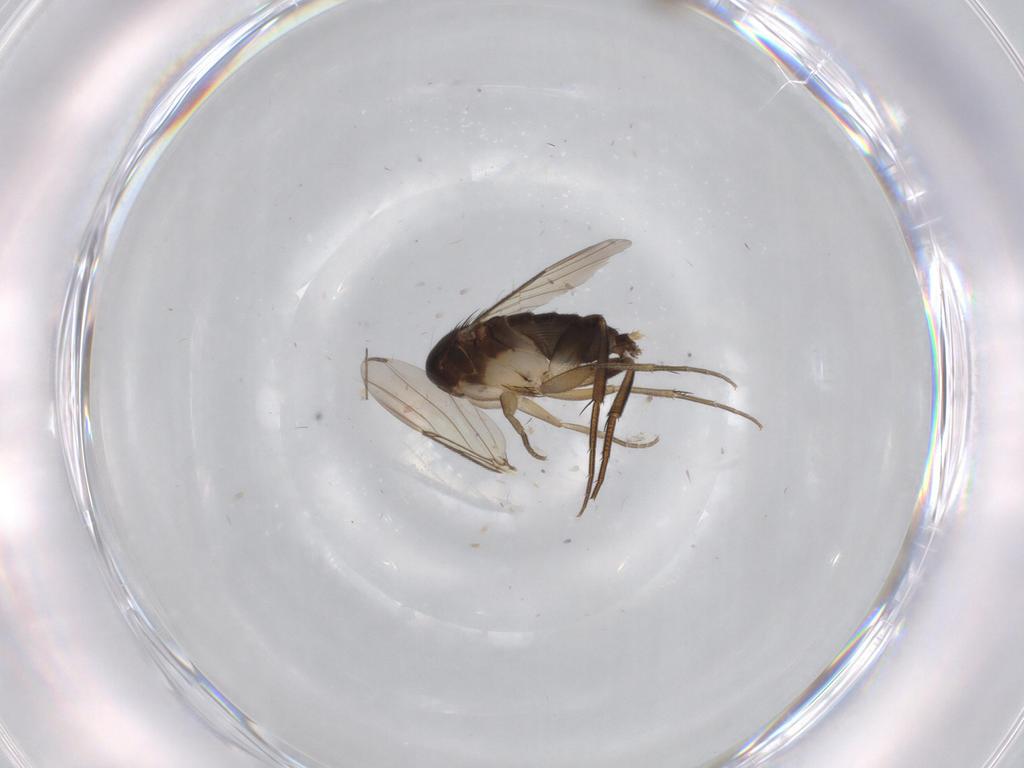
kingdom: Animalia
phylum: Arthropoda
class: Insecta
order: Diptera
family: Phoridae
